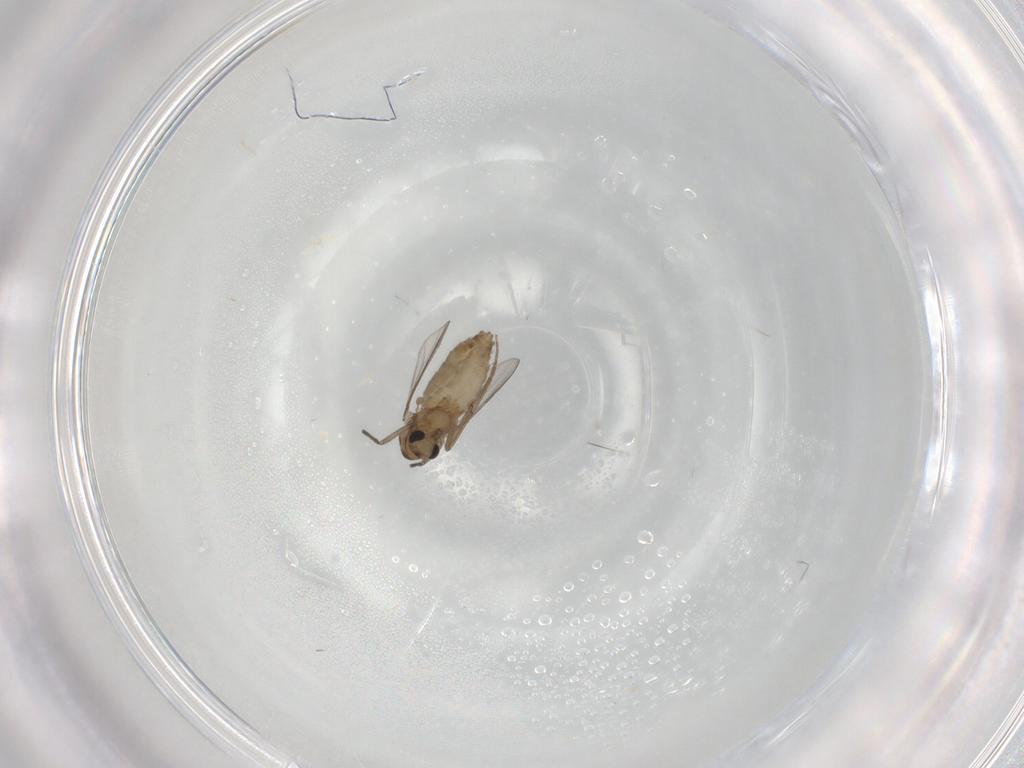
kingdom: Animalia
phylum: Arthropoda
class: Insecta
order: Diptera
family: Chironomidae
